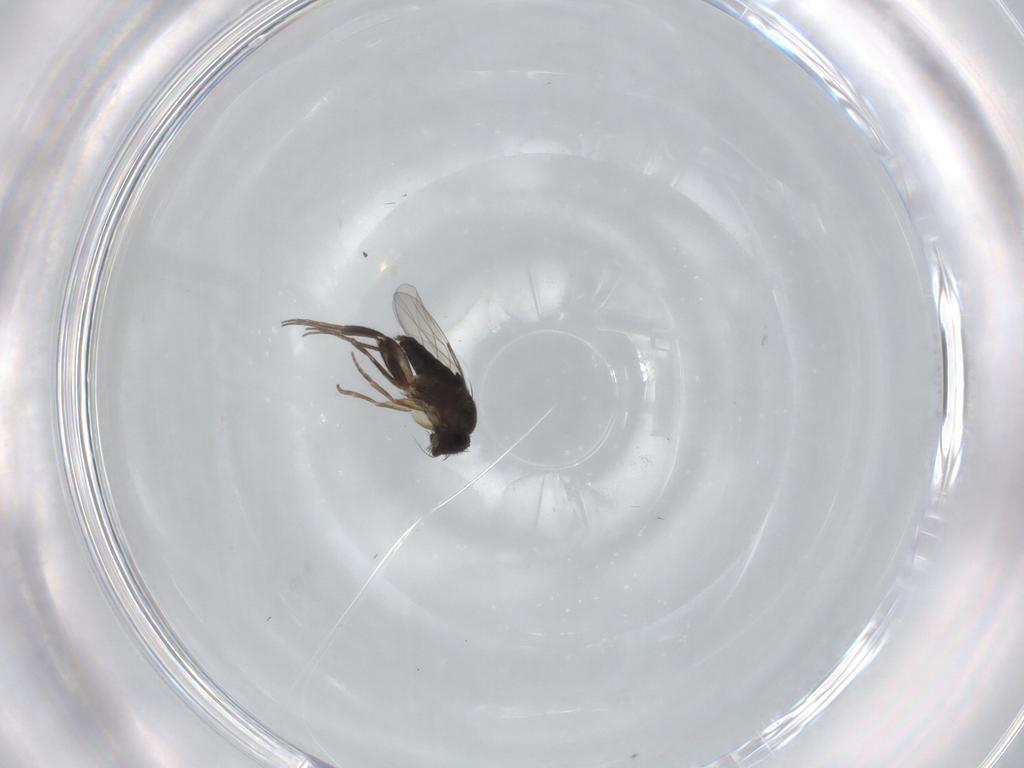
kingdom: Animalia
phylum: Arthropoda
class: Insecta
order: Diptera
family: Phoridae
